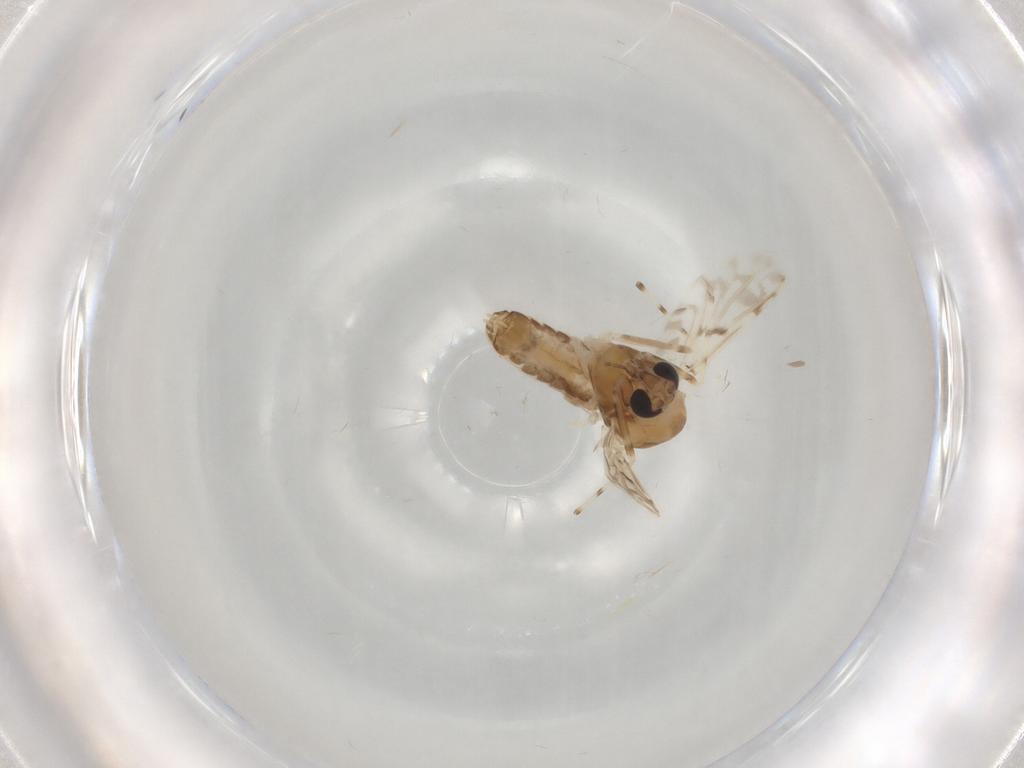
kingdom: Animalia
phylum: Arthropoda
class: Insecta
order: Diptera
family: Chironomidae
